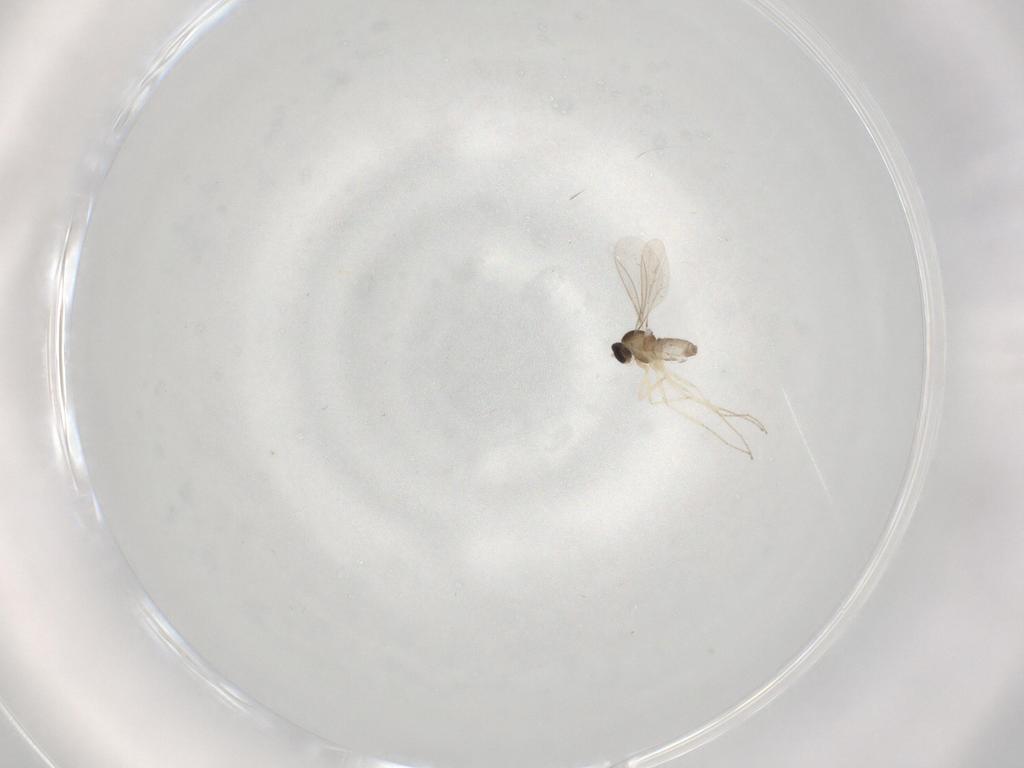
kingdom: Animalia
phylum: Arthropoda
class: Insecta
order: Diptera
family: Cecidomyiidae
